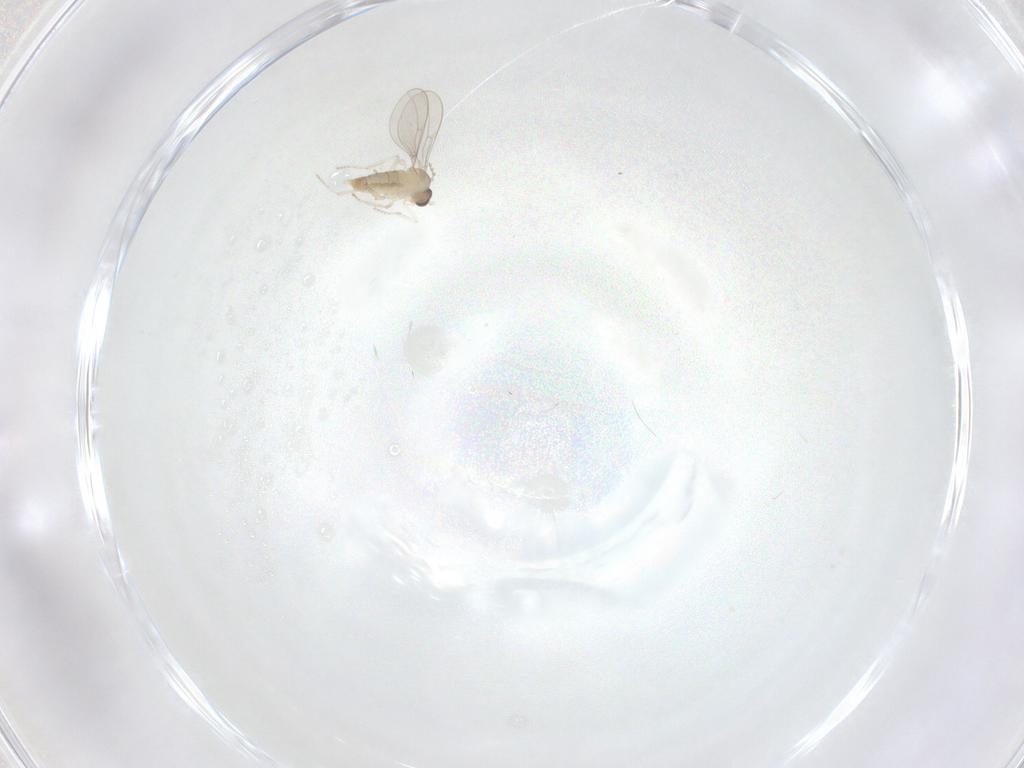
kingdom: Animalia
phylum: Arthropoda
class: Insecta
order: Diptera
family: Cecidomyiidae
